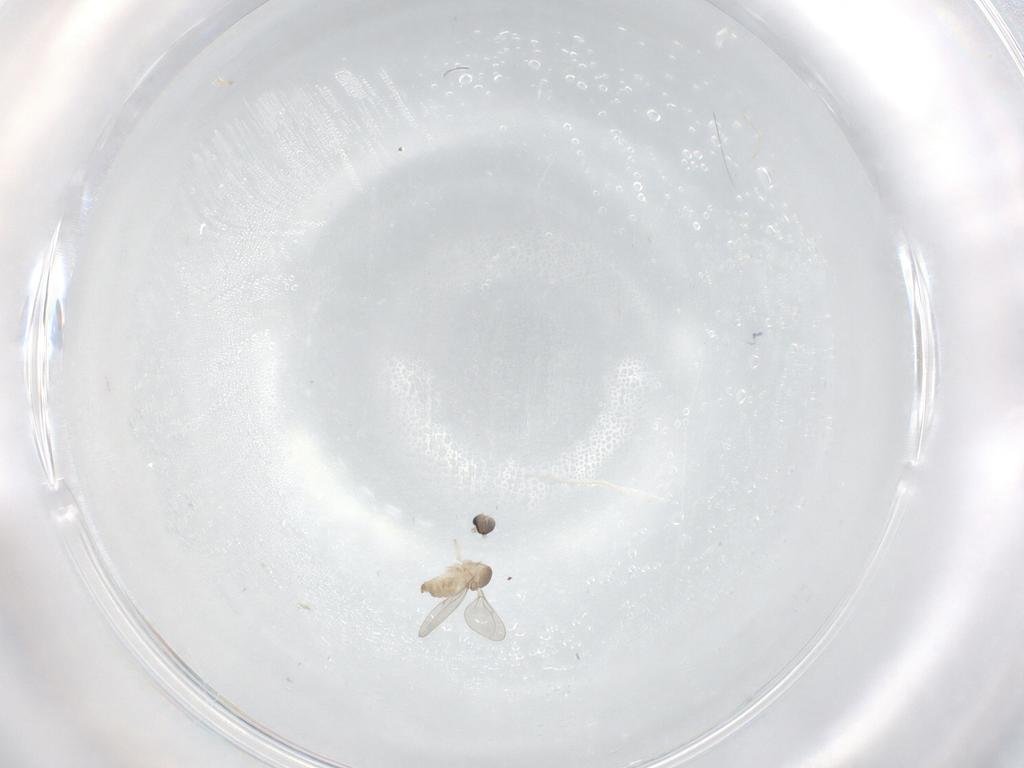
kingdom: Animalia
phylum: Arthropoda
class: Insecta
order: Diptera
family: Cecidomyiidae
